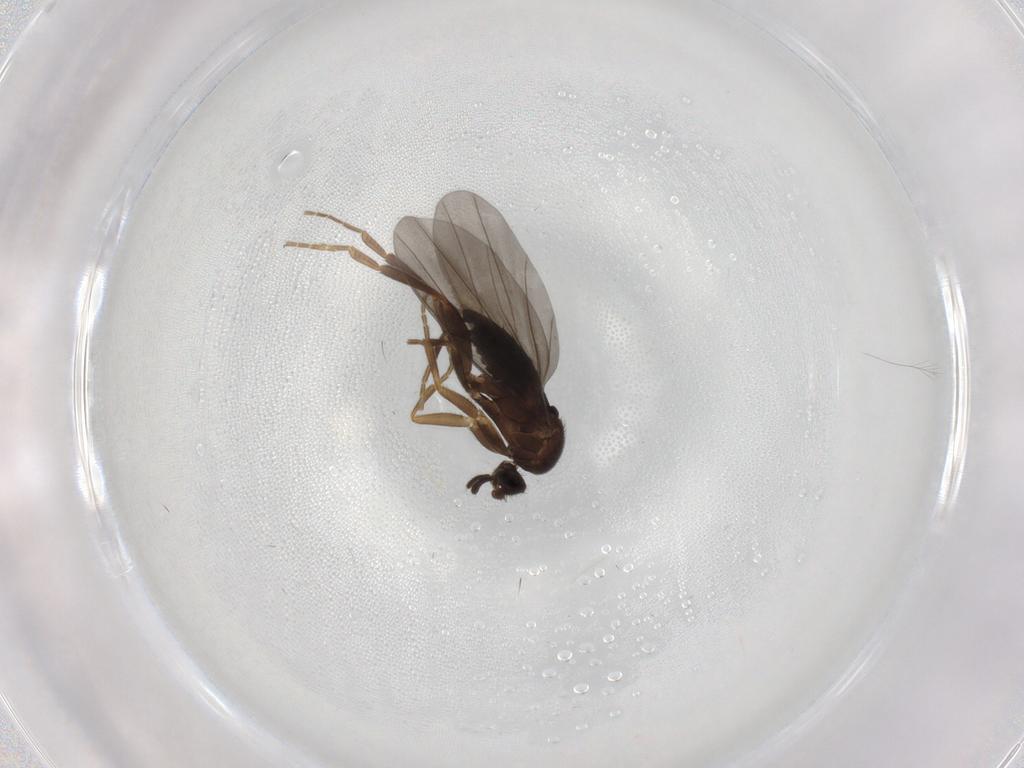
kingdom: Animalia
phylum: Arthropoda
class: Insecta
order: Diptera
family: Phoridae
